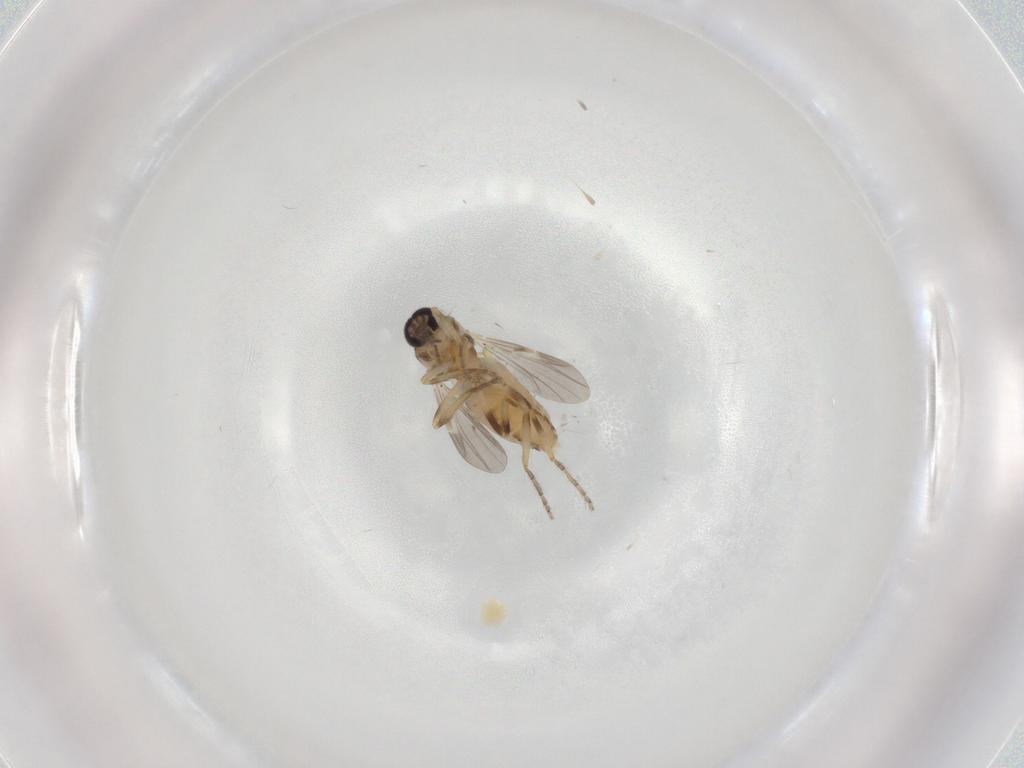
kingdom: Animalia
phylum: Arthropoda
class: Insecta
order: Diptera
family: Ceratopogonidae
